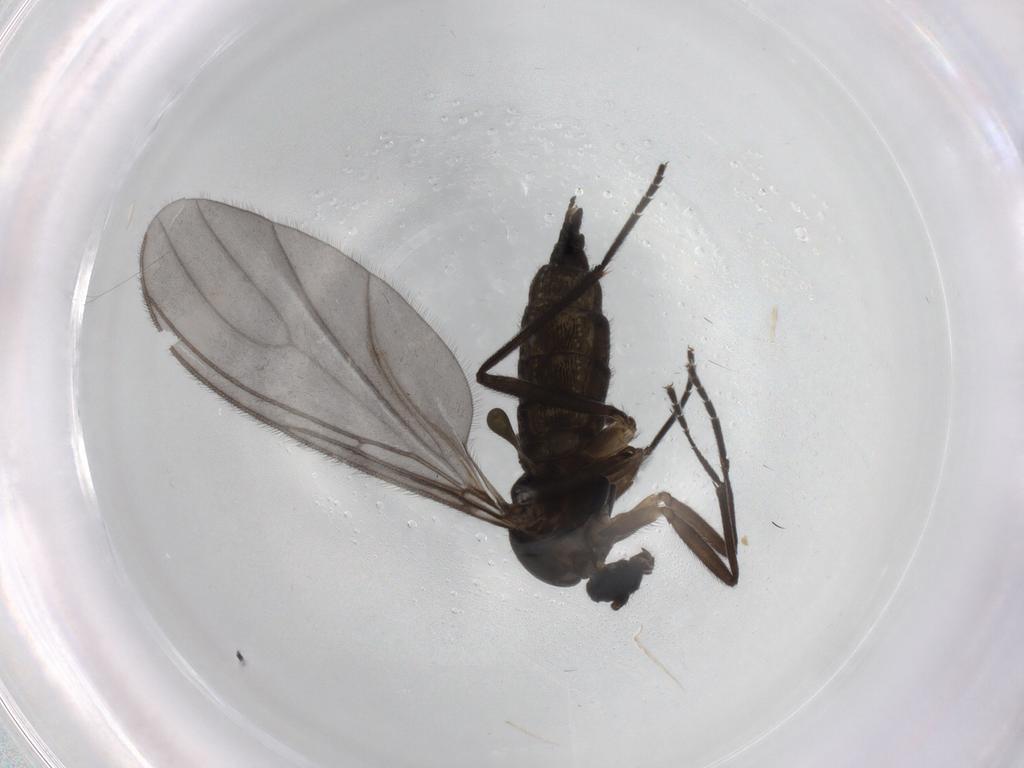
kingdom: Animalia
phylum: Arthropoda
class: Insecta
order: Diptera
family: Sciaridae
